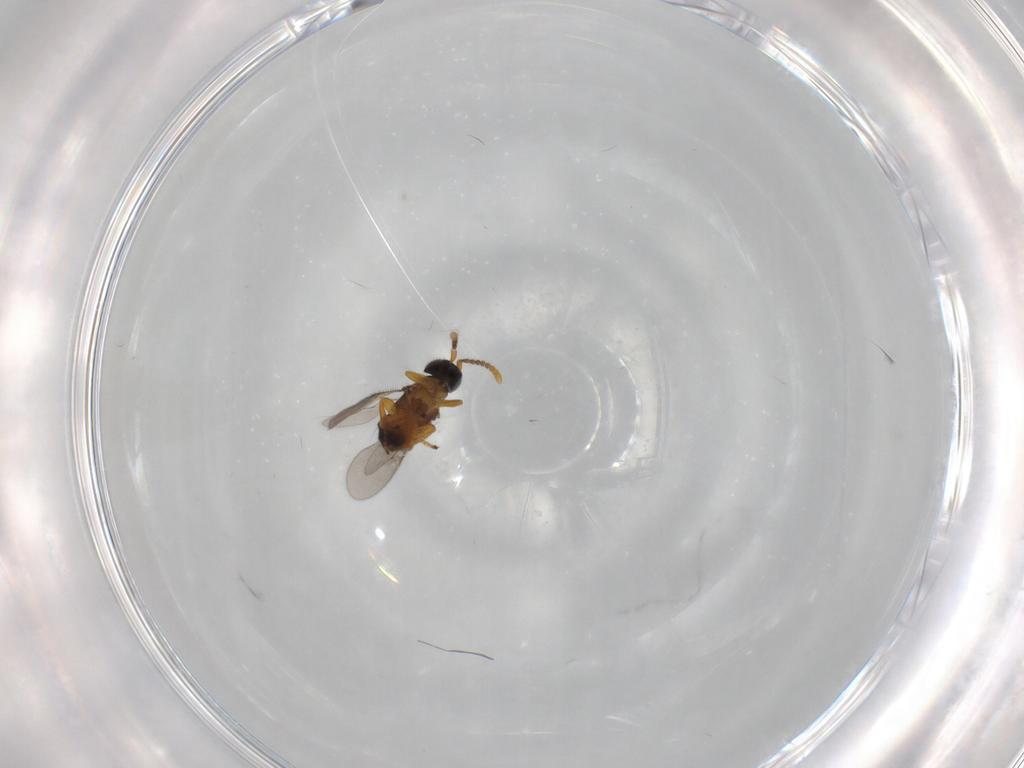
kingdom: Animalia
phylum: Arthropoda
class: Insecta
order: Hymenoptera
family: Encyrtidae
